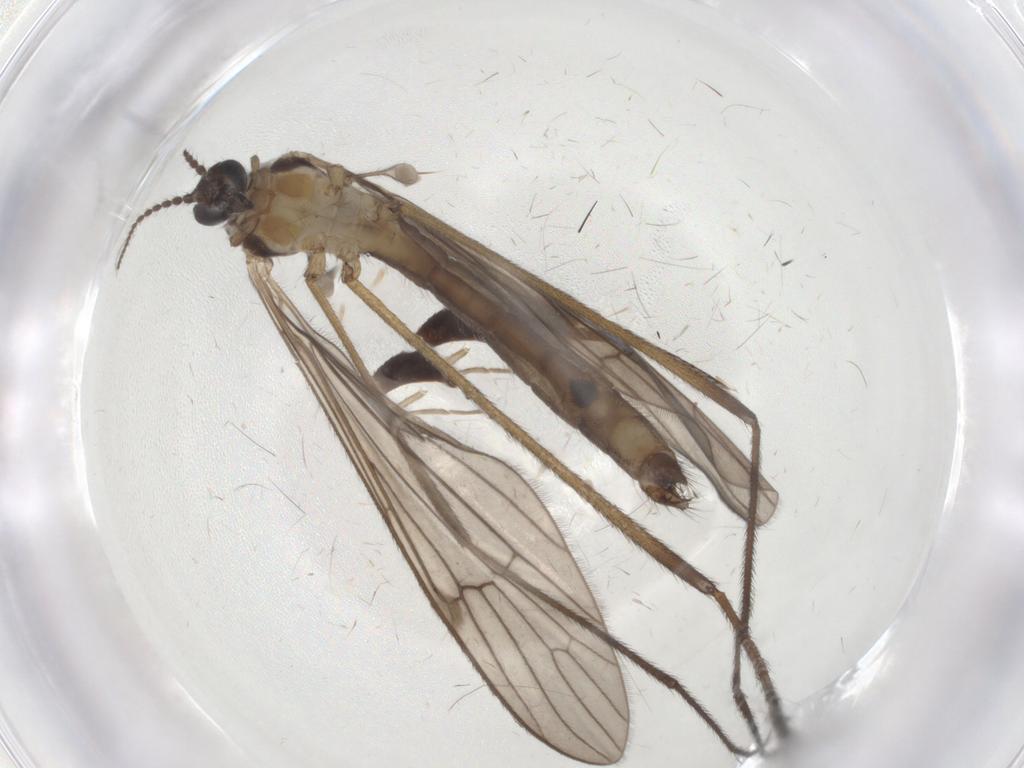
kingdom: Animalia
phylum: Arthropoda
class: Insecta
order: Diptera
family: Limoniidae
